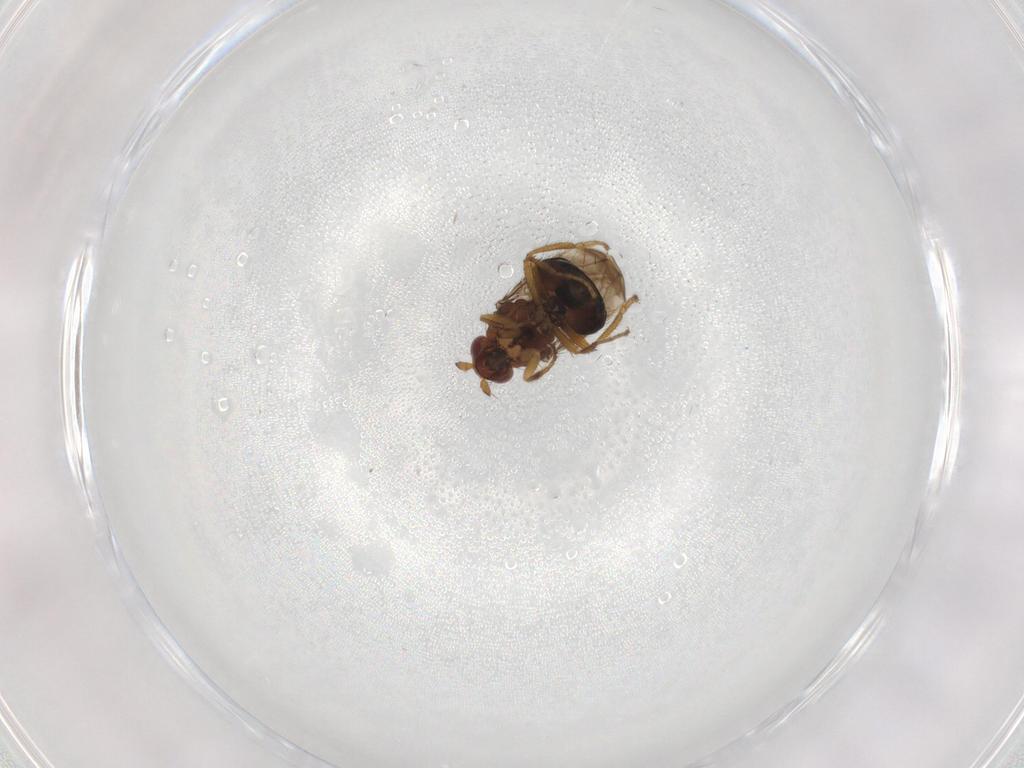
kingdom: Animalia
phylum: Arthropoda
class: Insecta
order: Diptera
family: Sphaeroceridae
